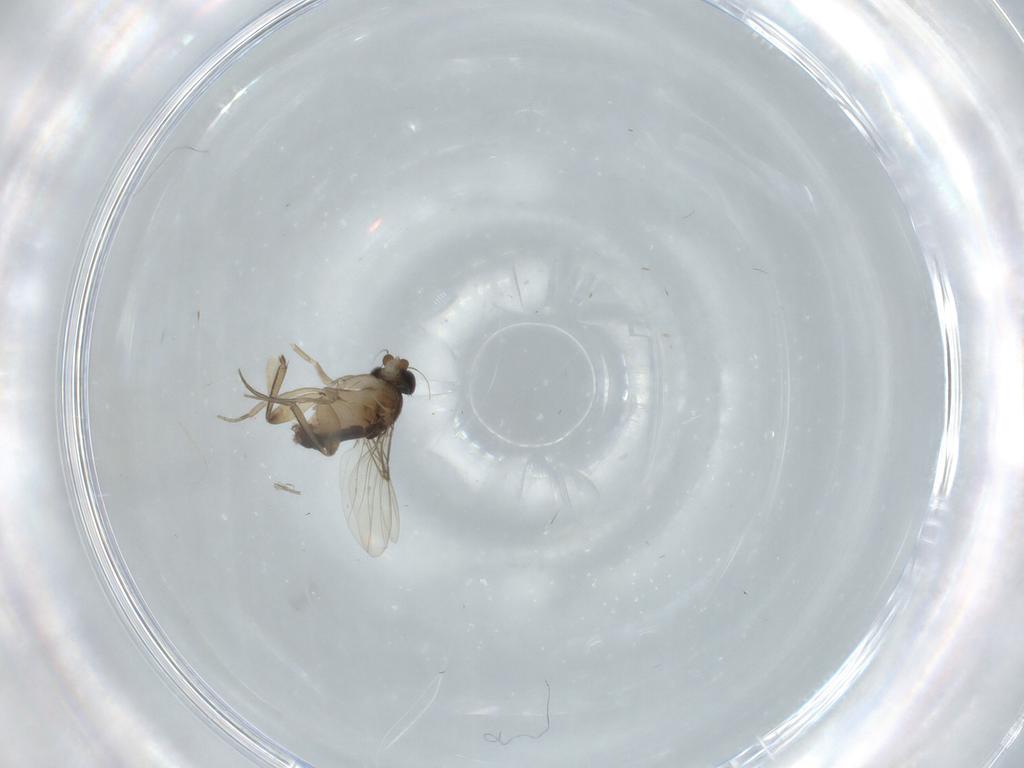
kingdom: Animalia
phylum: Arthropoda
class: Insecta
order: Diptera
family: Phoridae
